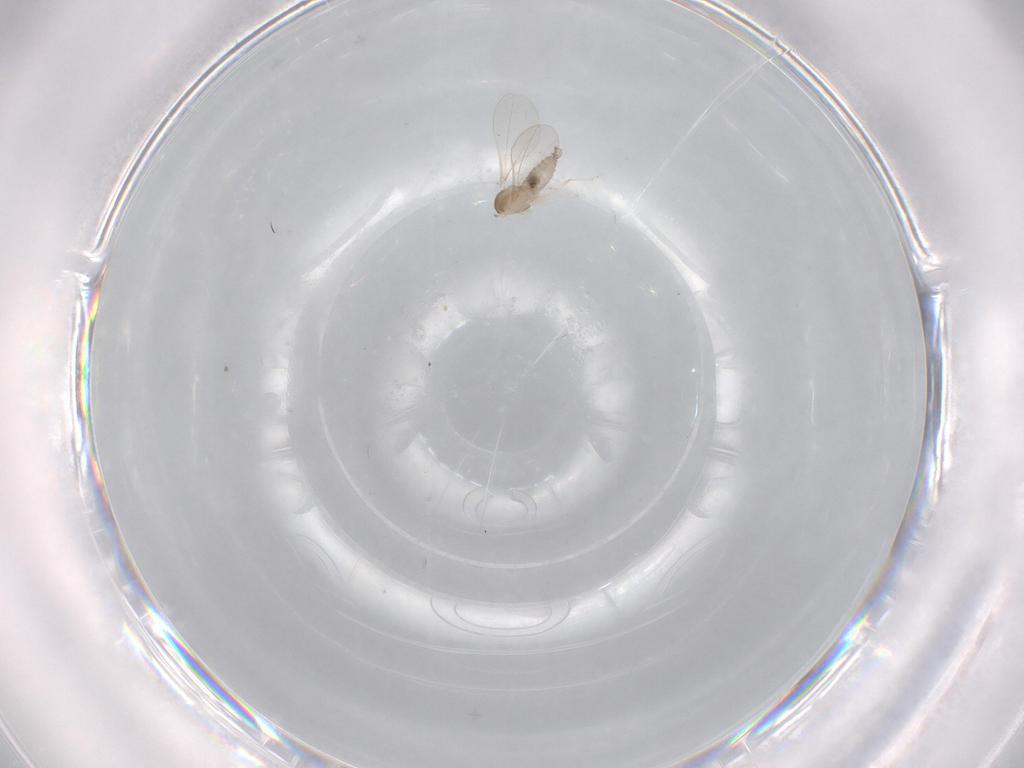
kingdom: Animalia
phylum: Arthropoda
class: Insecta
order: Diptera
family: Cecidomyiidae
